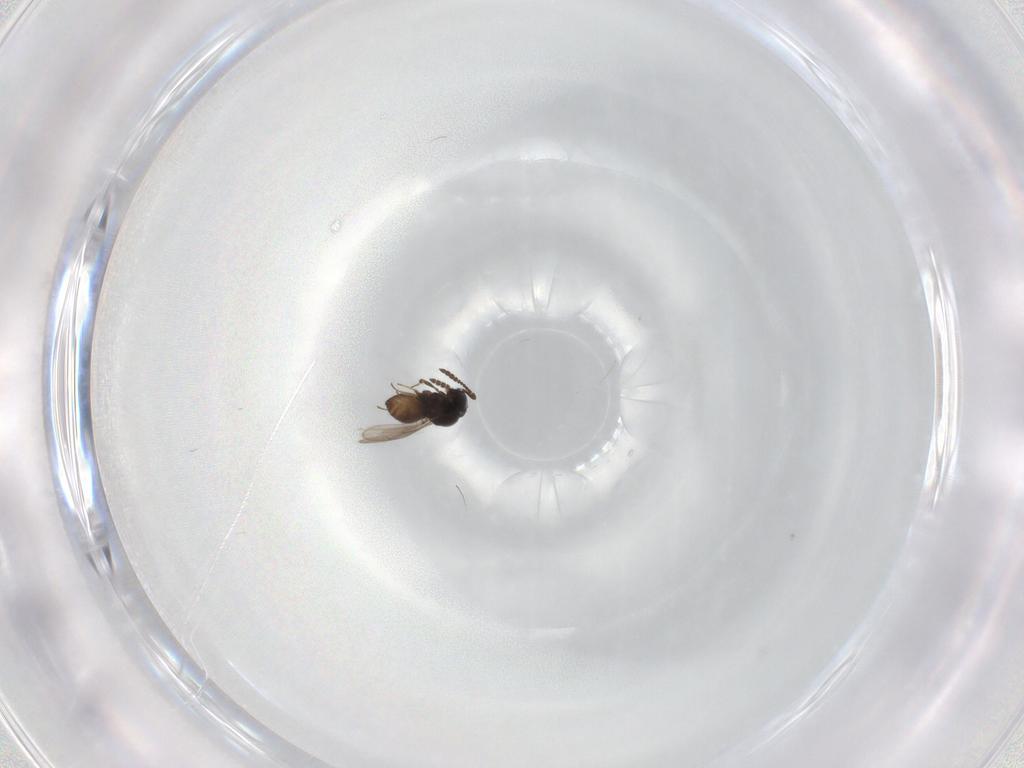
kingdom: Animalia
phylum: Arthropoda
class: Insecta
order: Hymenoptera
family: Scelionidae
